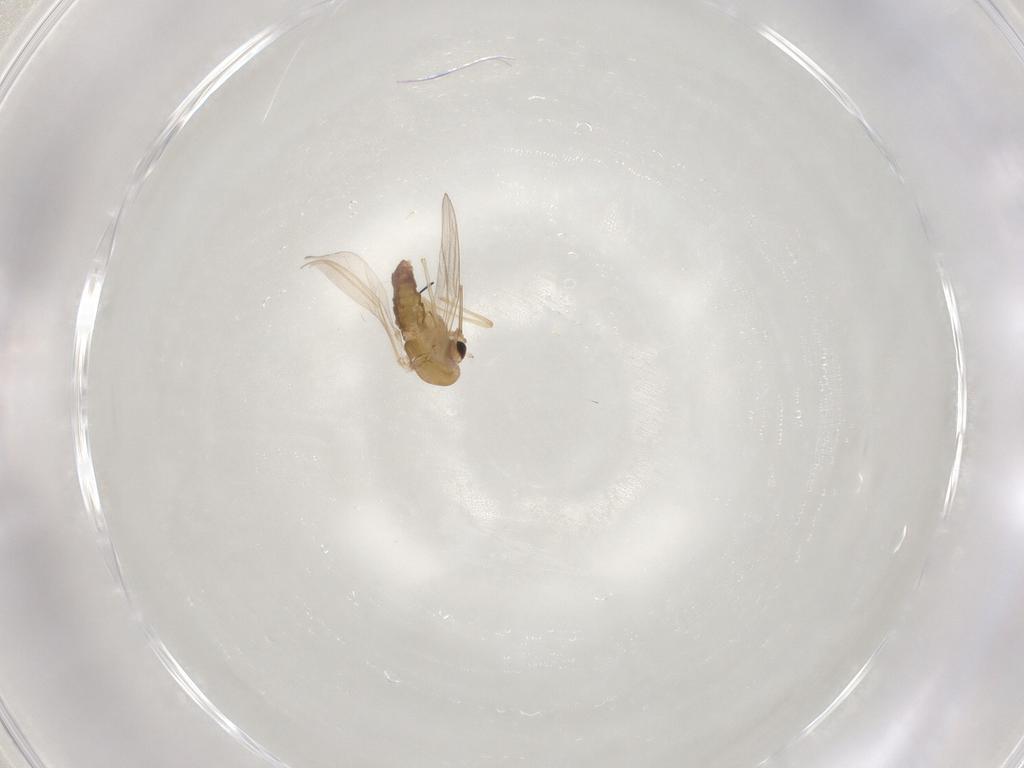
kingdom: Animalia
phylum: Arthropoda
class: Insecta
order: Diptera
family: Chironomidae
